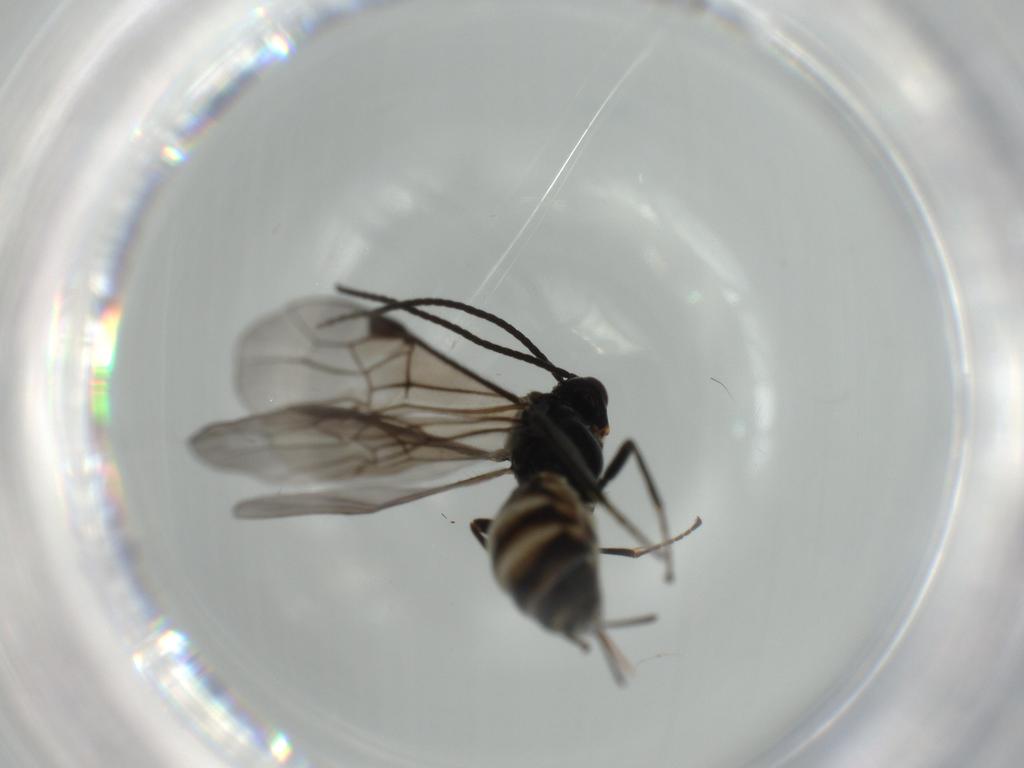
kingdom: Animalia
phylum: Arthropoda
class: Insecta
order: Hymenoptera
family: Braconidae
